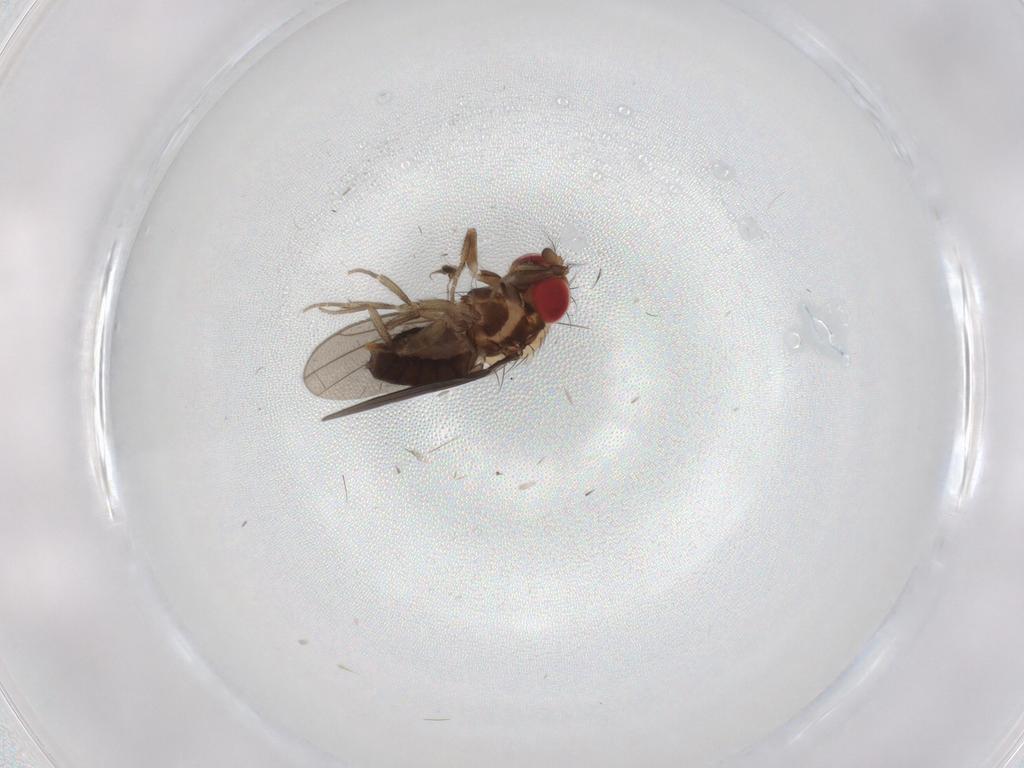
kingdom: Animalia
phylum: Arthropoda
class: Insecta
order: Diptera
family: Drosophilidae
